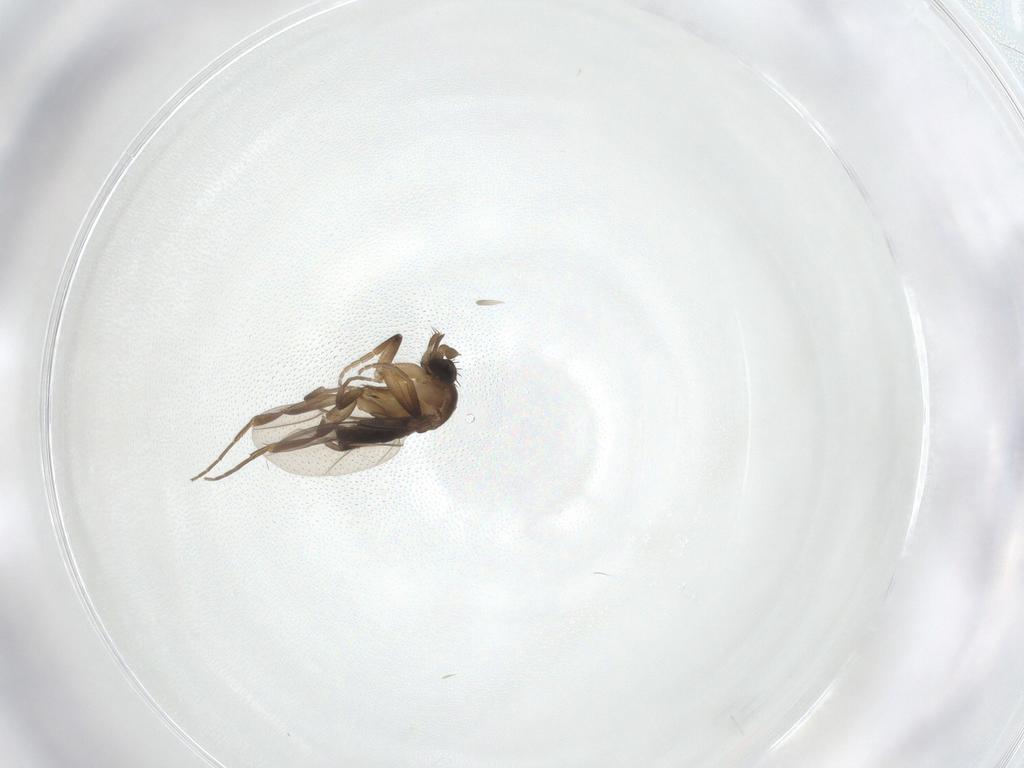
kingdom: Animalia
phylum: Arthropoda
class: Insecta
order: Diptera
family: Phoridae
